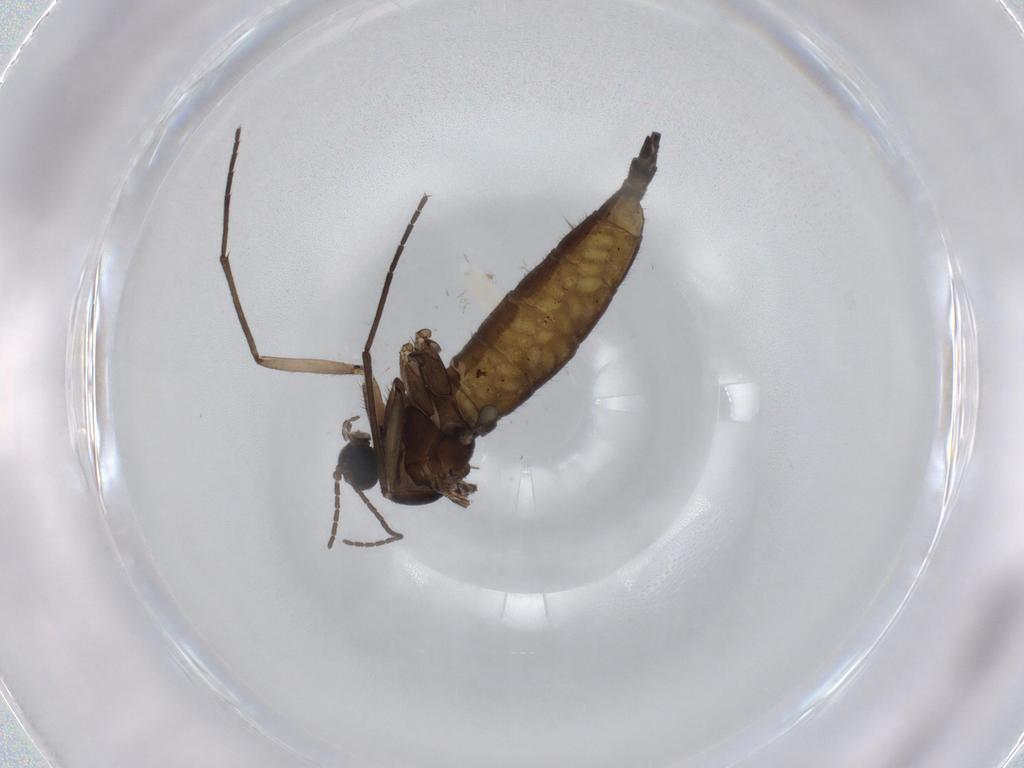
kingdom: Animalia
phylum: Arthropoda
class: Insecta
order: Diptera
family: Sciaridae
